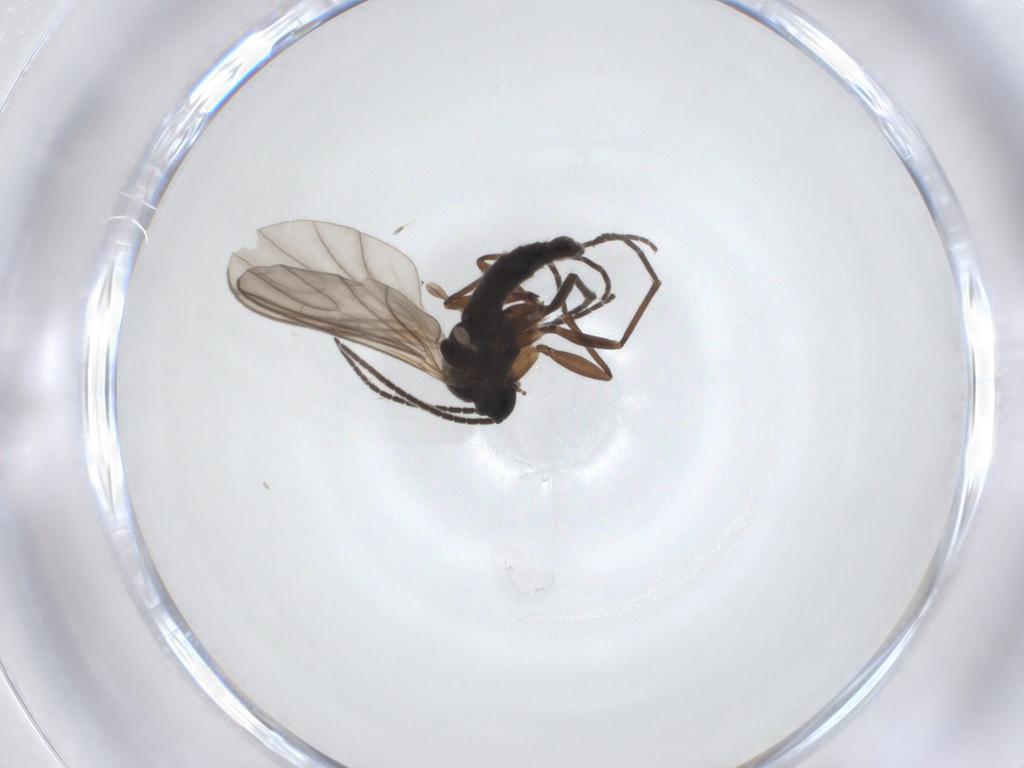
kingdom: Animalia
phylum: Arthropoda
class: Insecta
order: Diptera
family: Sciaridae
